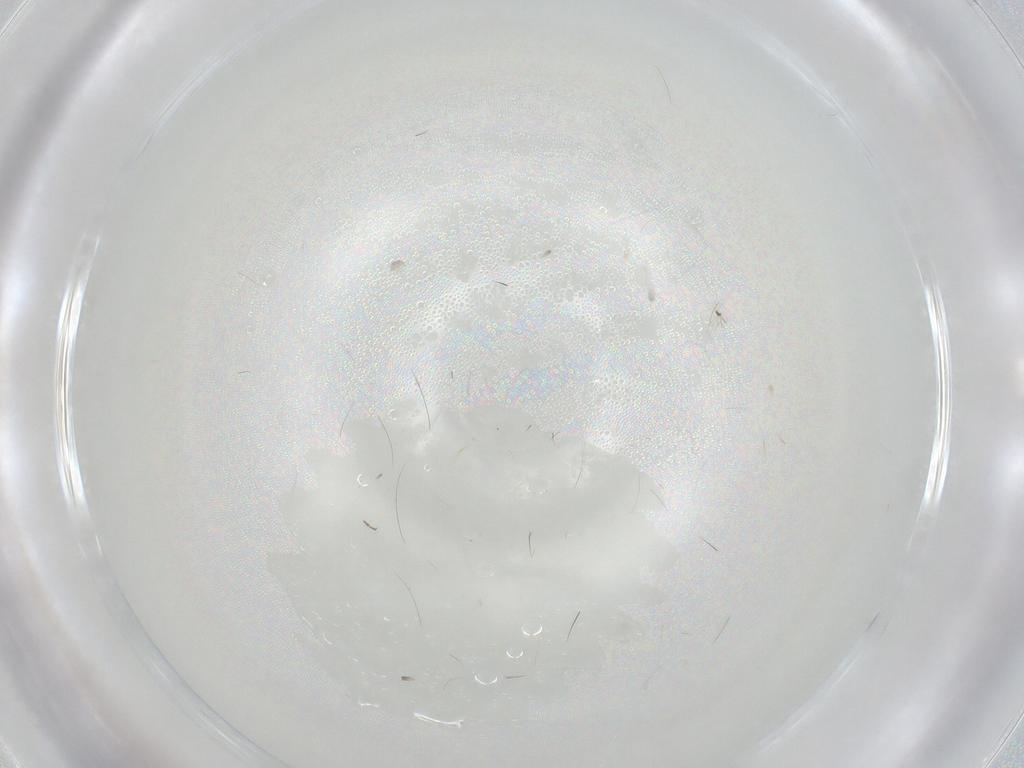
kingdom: Animalia
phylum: Arthropoda
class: Insecta
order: Diptera
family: Chironomidae
